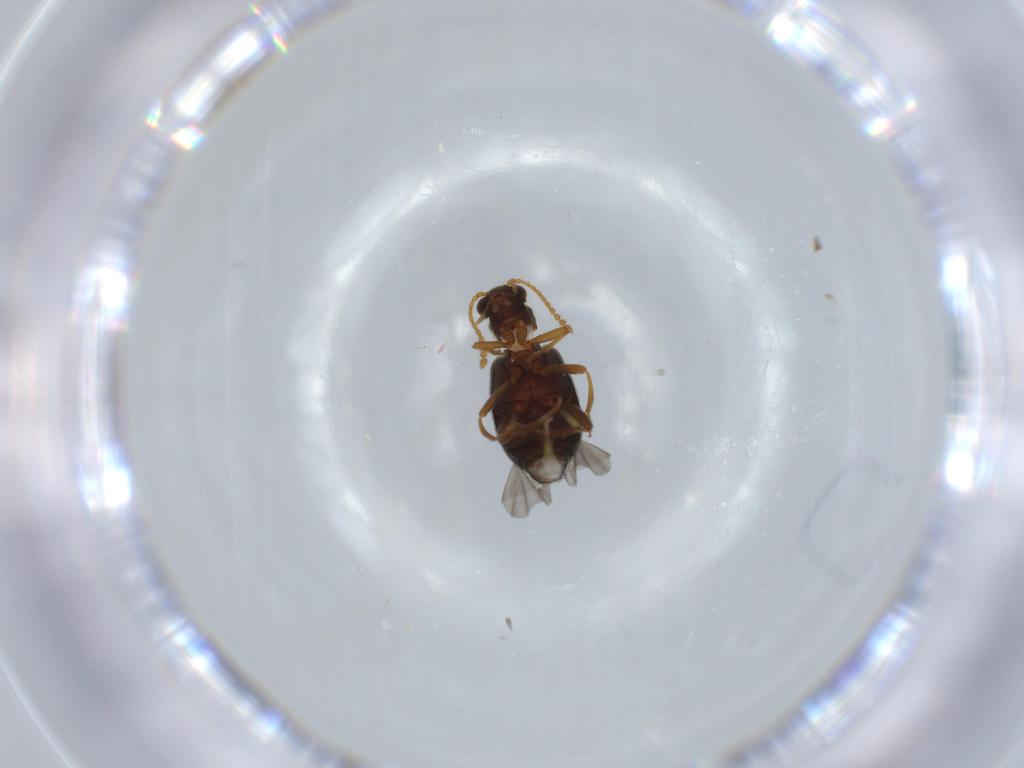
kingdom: Animalia
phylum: Arthropoda
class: Insecta
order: Coleoptera
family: Aderidae
